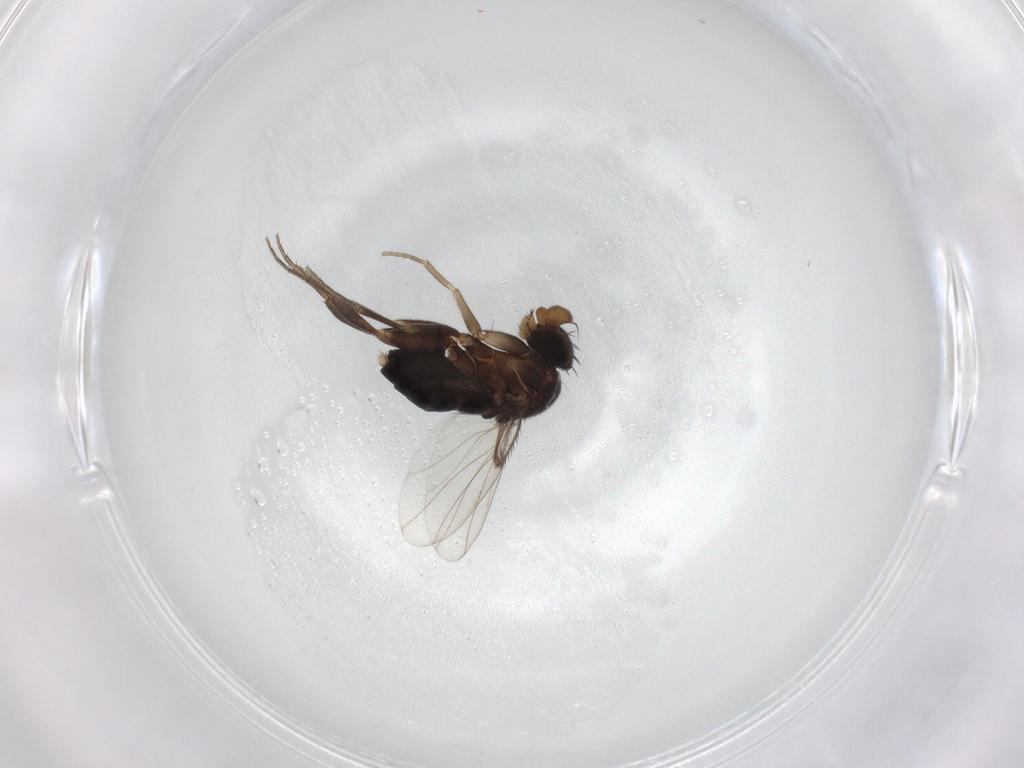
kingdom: Animalia
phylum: Arthropoda
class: Insecta
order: Diptera
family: Phoridae
